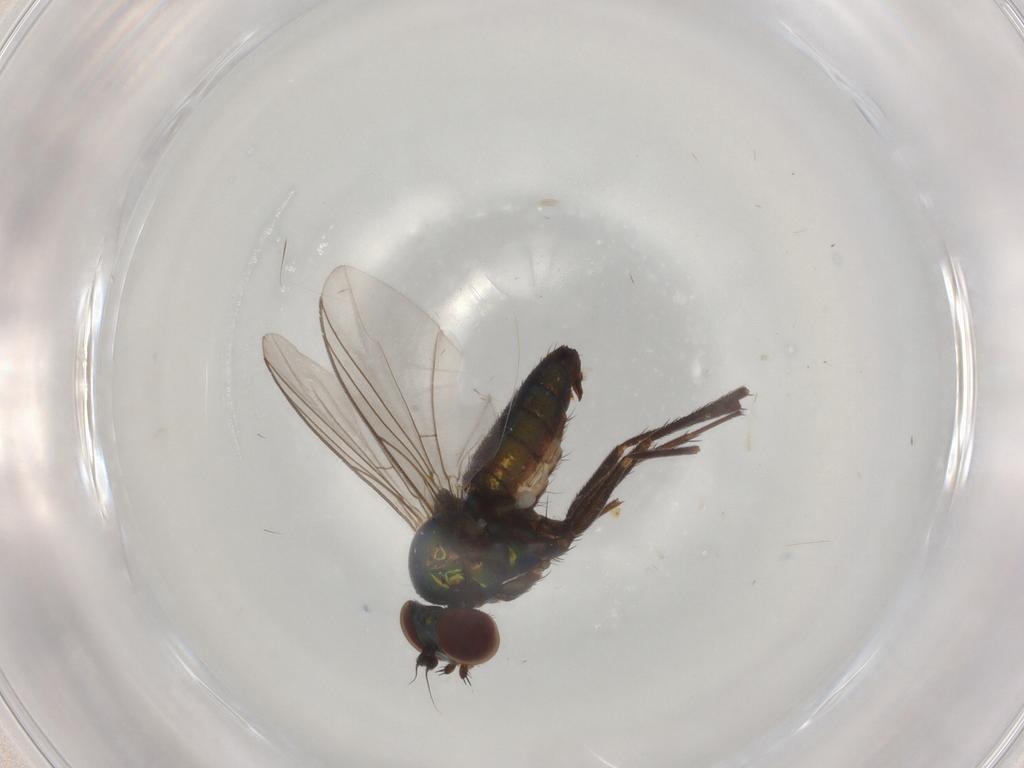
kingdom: Animalia
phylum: Arthropoda
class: Insecta
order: Diptera
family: Dolichopodidae
